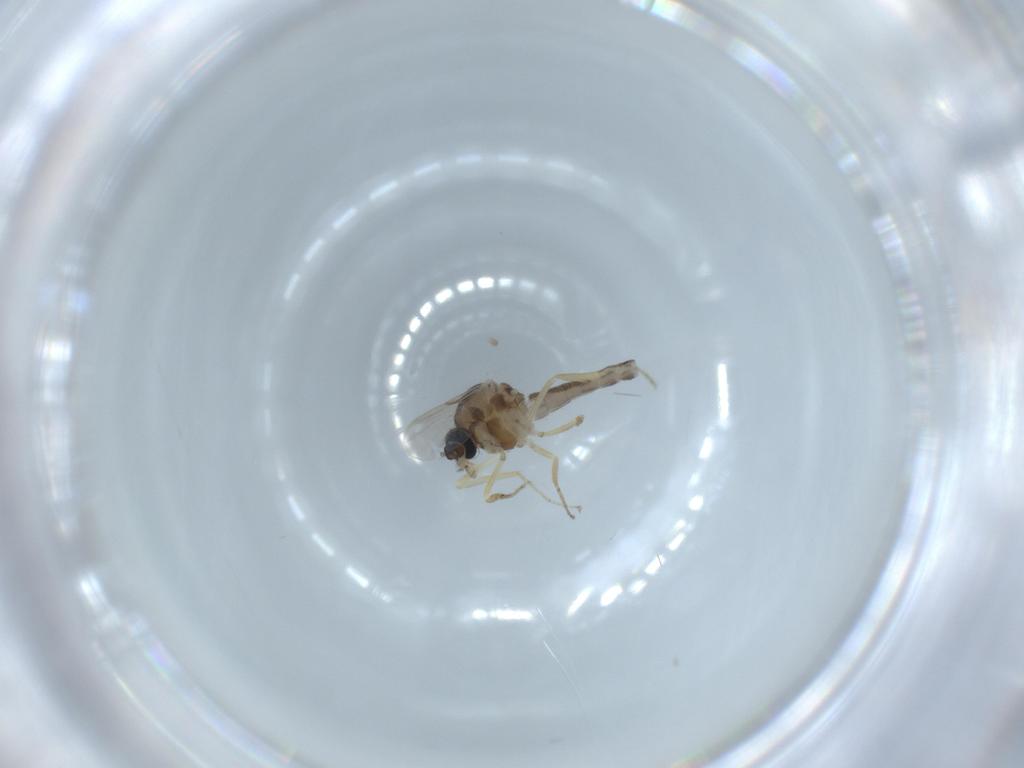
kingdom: Animalia
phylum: Arthropoda
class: Insecta
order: Diptera
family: Ceratopogonidae
